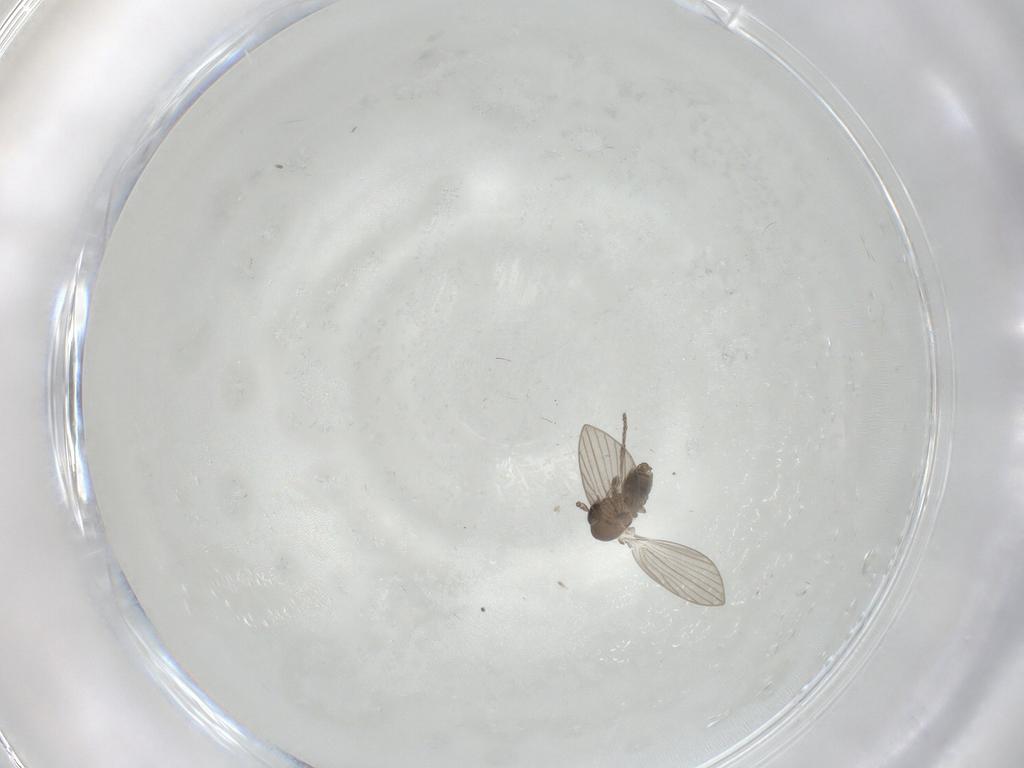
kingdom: Animalia
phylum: Arthropoda
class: Insecta
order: Diptera
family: Psychodidae
